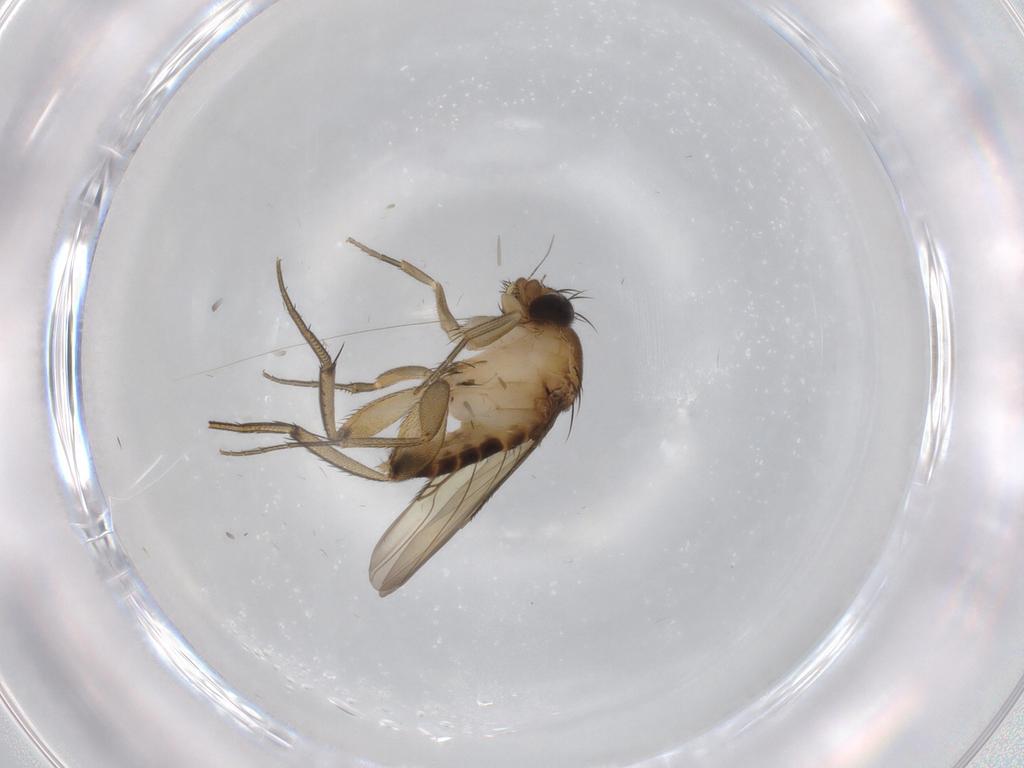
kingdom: Animalia
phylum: Arthropoda
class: Insecta
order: Diptera
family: Phoridae
